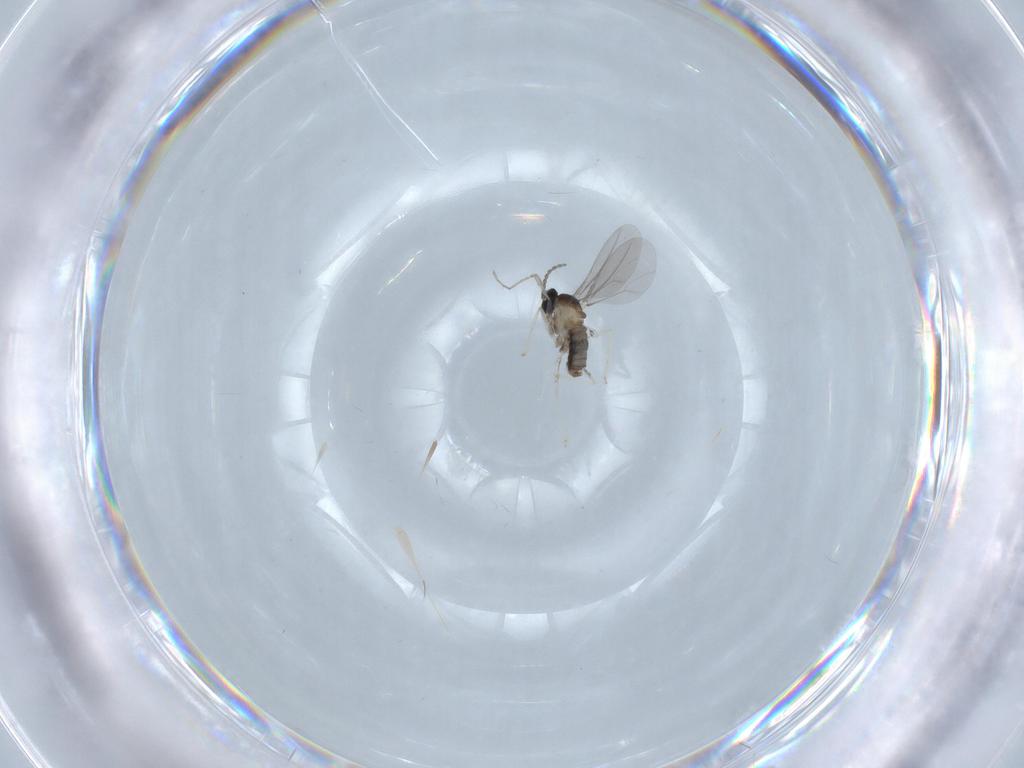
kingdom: Animalia
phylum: Arthropoda
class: Insecta
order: Diptera
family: Cecidomyiidae
